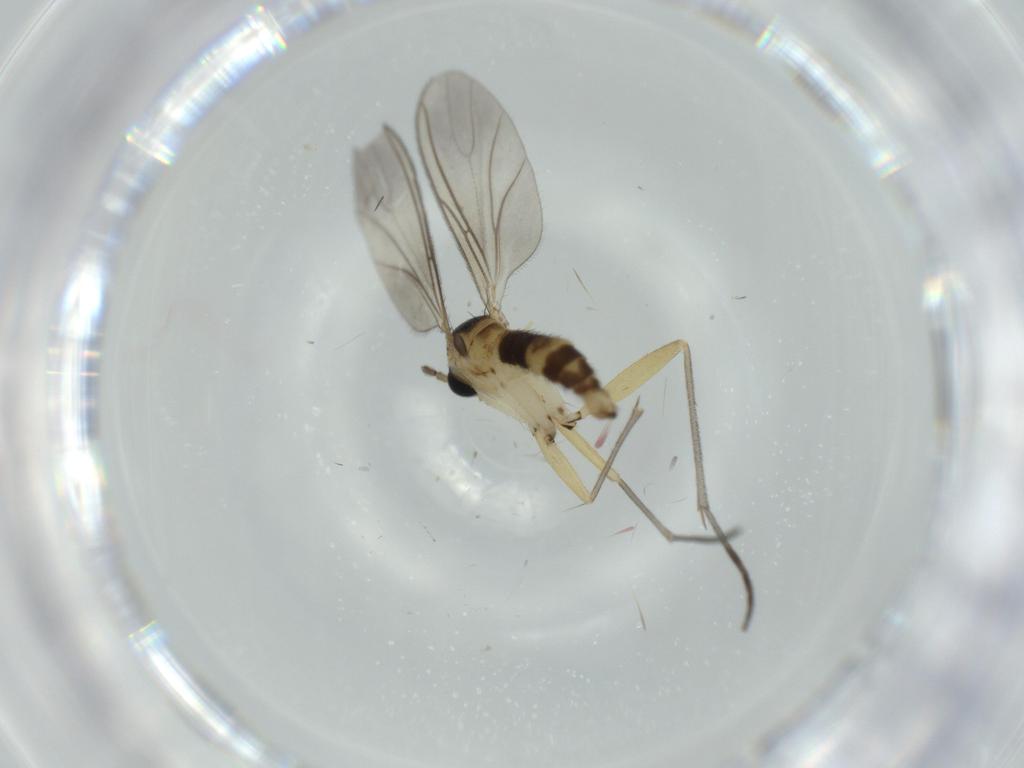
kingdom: Animalia
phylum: Arthropoda
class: Insecta
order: Diptera
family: Sciaridae
